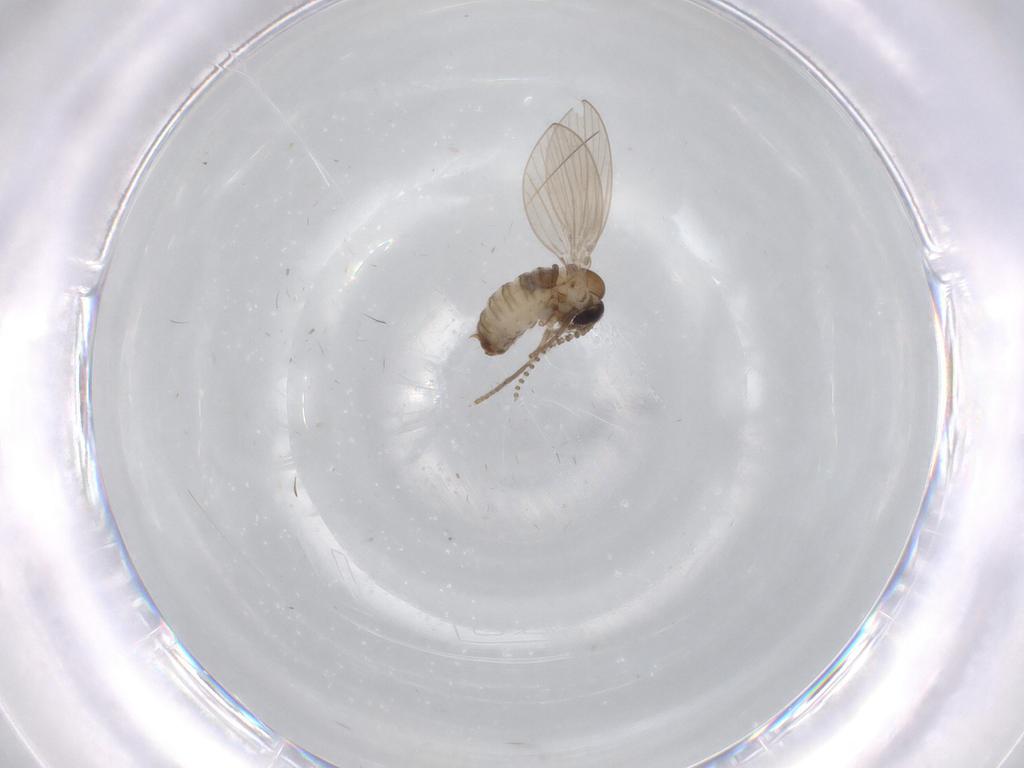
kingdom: Animalia
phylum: Arthropoda
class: Insecta
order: Diptera
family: Psychodidae
